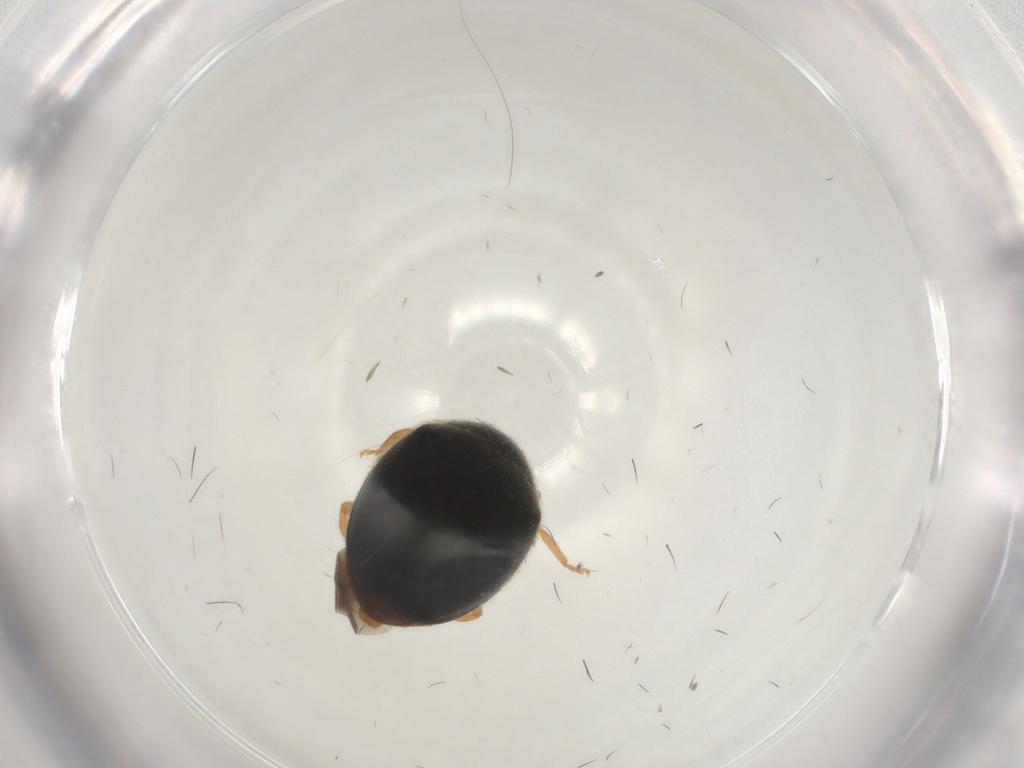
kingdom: Animalia
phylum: Arthropoda
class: Insecta
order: Coleoptera
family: Coccinellidae
